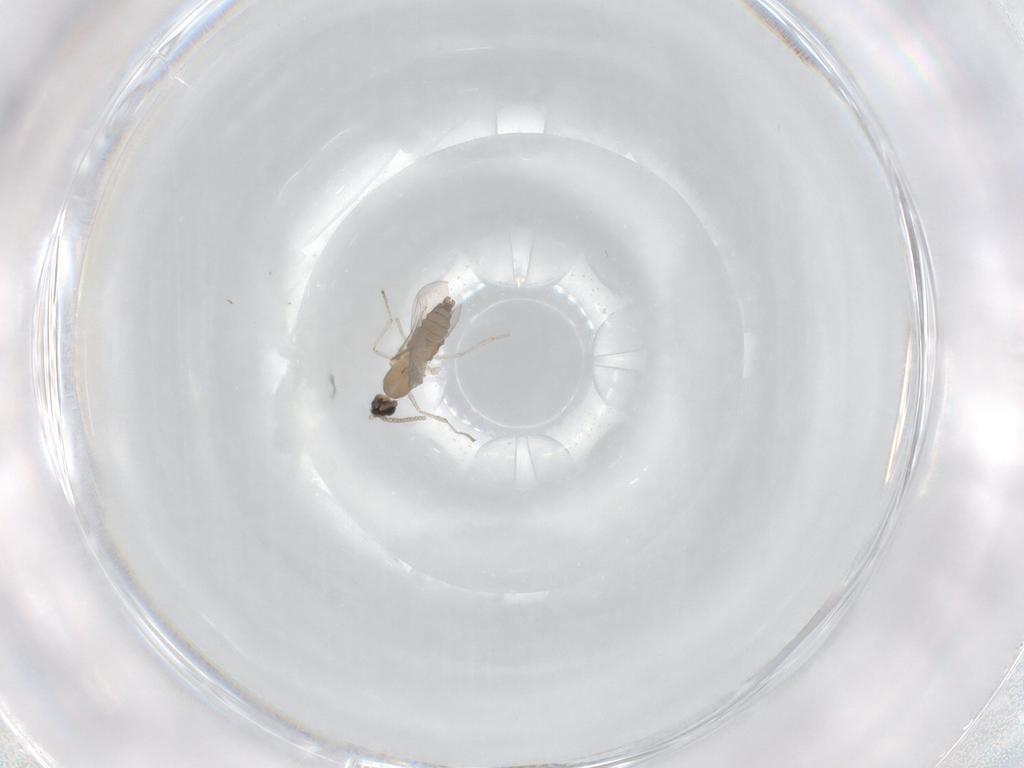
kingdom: Animalia
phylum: Arthropoda
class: Insecta
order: Diptera
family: Cecidomyiidae
